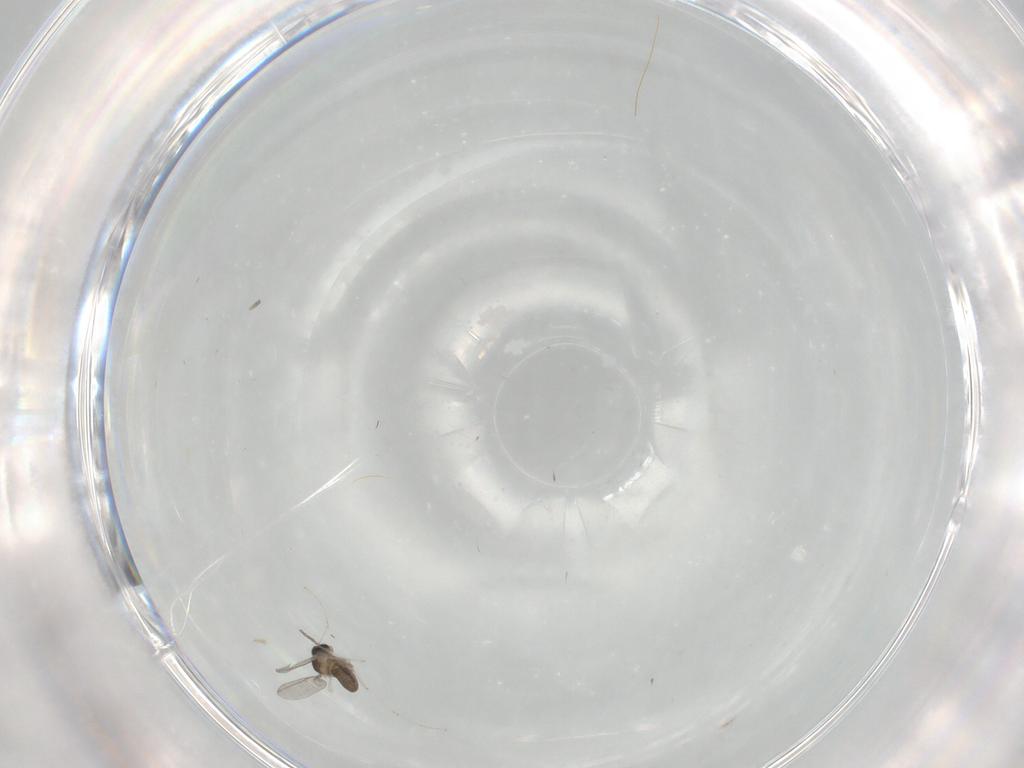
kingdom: Animalia
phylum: Arthropoda
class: Insecta
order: Diptera
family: Cecidomyiidae
